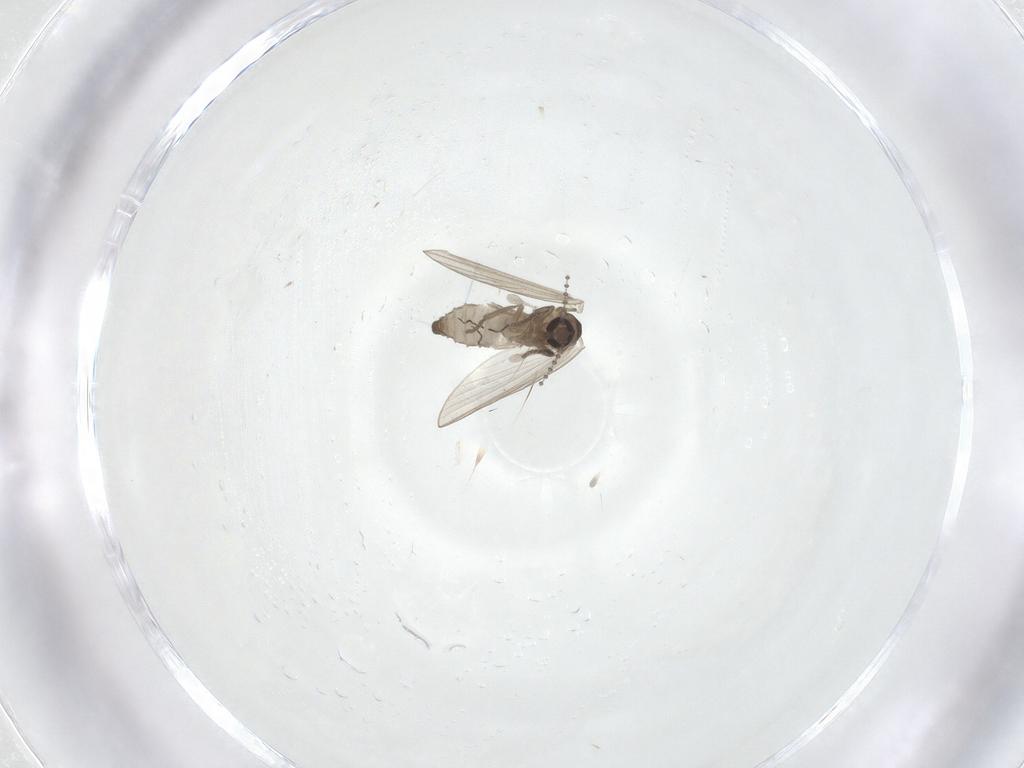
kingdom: Animalia
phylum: Arthropoda
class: Insecta
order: Diptera
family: Psychodidae
